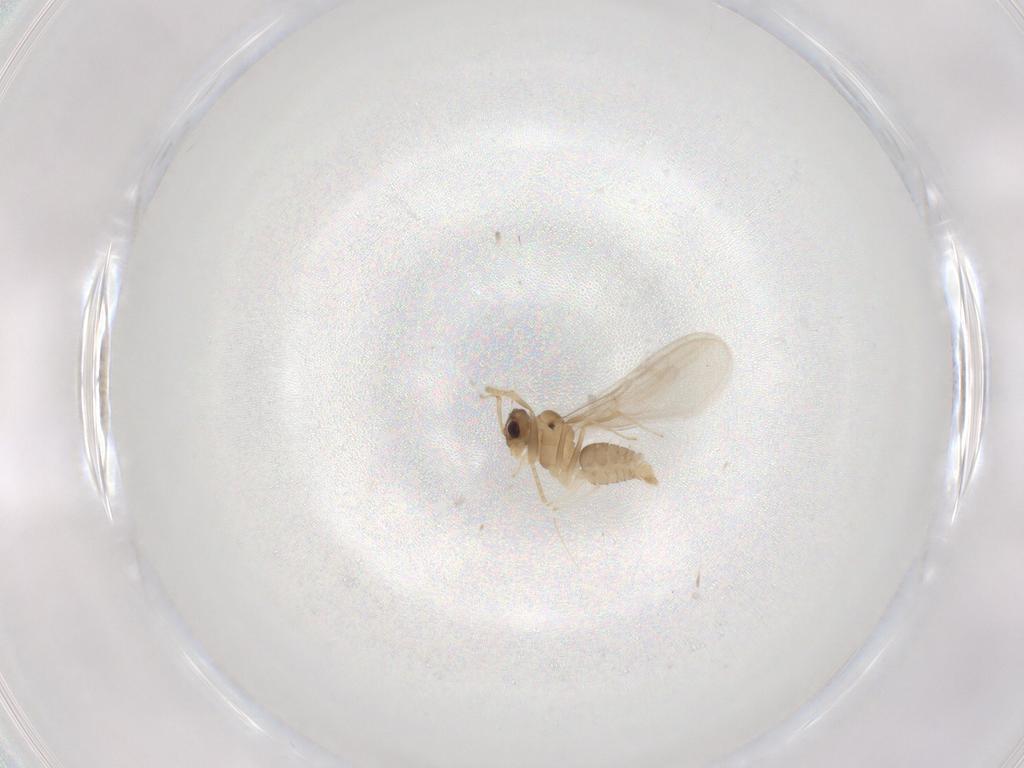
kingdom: Animalia
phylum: Arthropoda
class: Insecta
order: Hymenoptera
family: Formicidae
